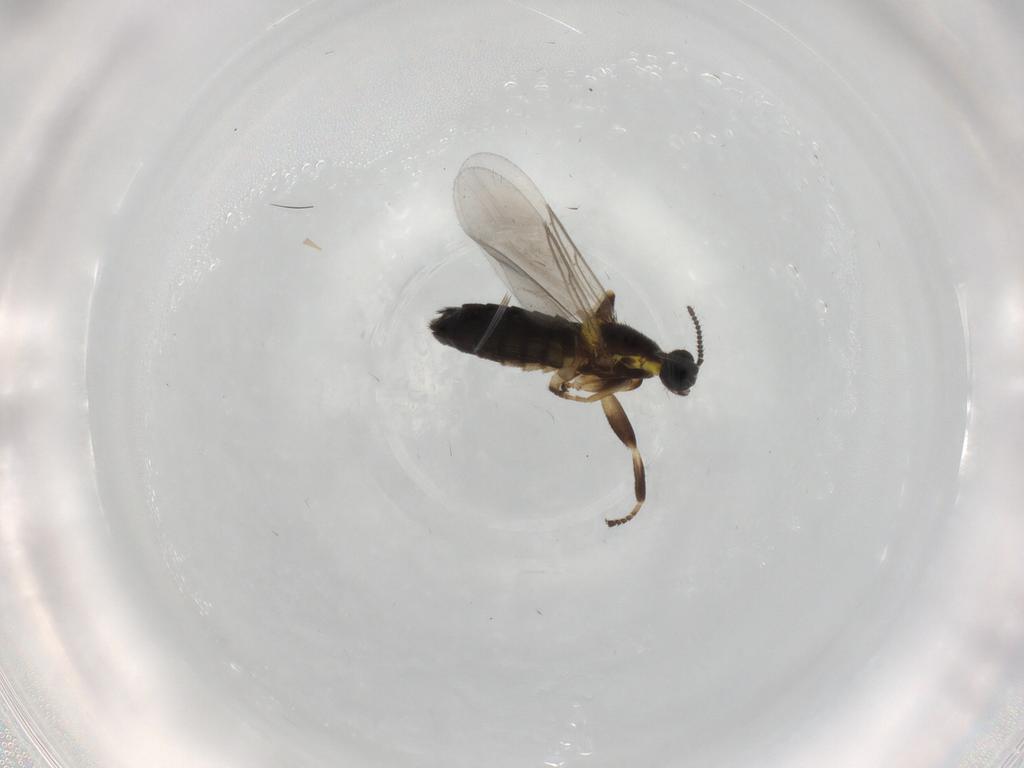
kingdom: Animalia
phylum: Arthropoda
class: Insecta
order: Diptera
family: Scatopsidae
